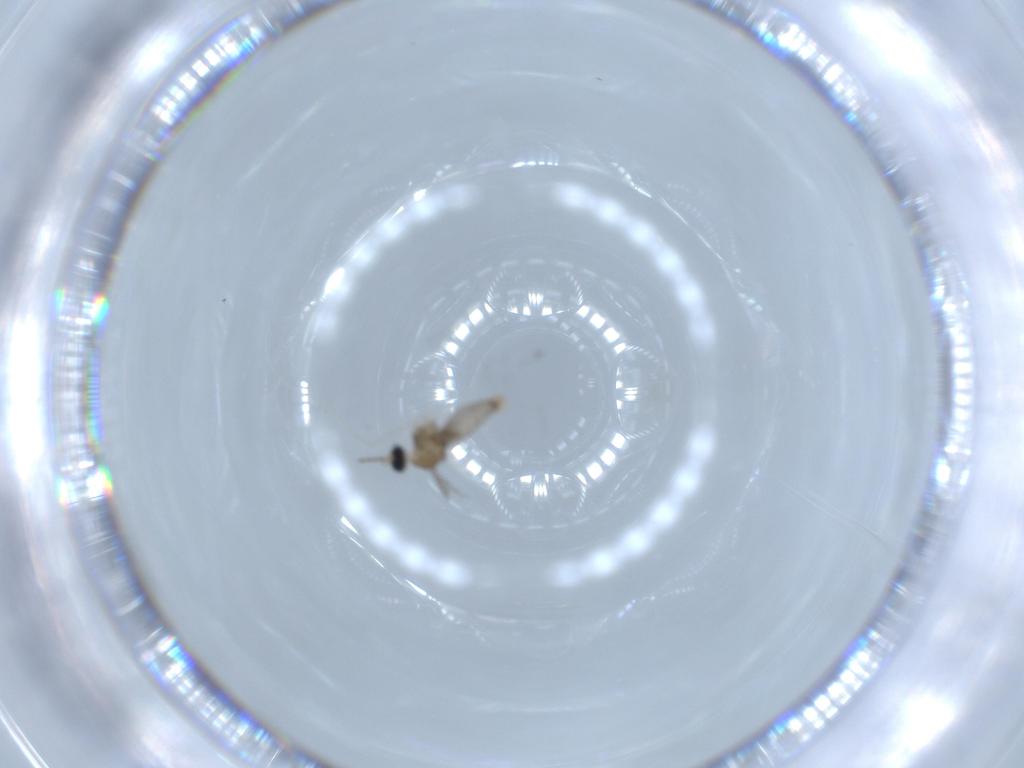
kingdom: Animalia
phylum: Arthropoda
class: Insecta
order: Diptera
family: Cecidomyiidae
